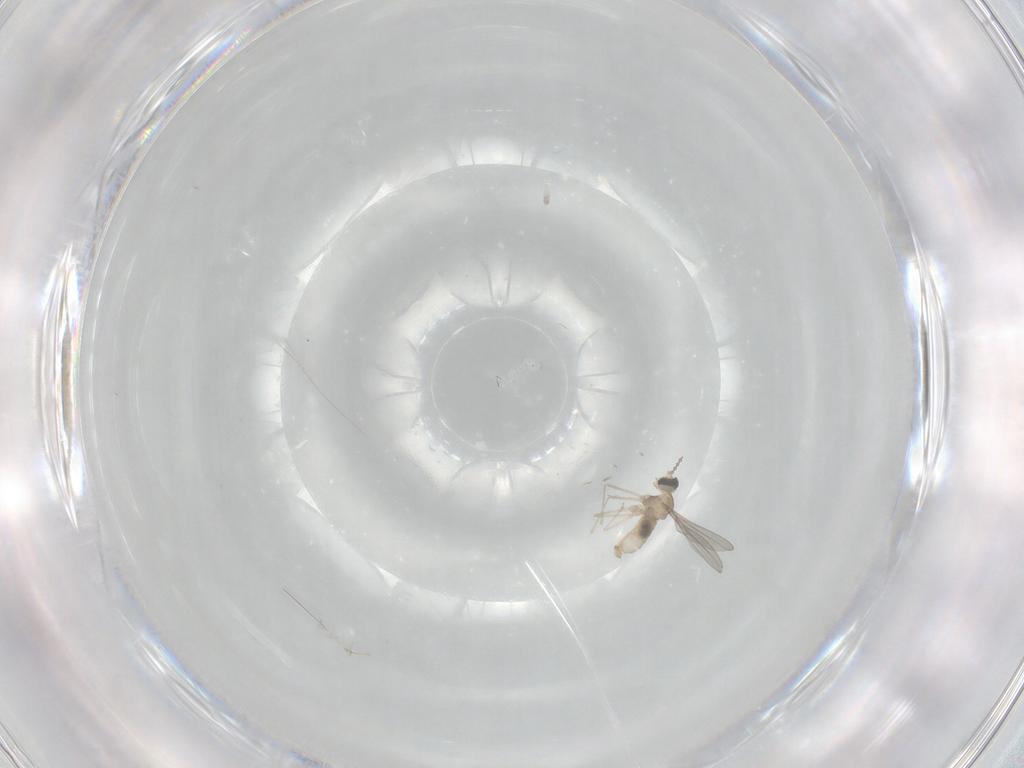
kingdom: Animalia
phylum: Arthropoda
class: Insecta
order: Diptera
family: Cecidomyiidae
